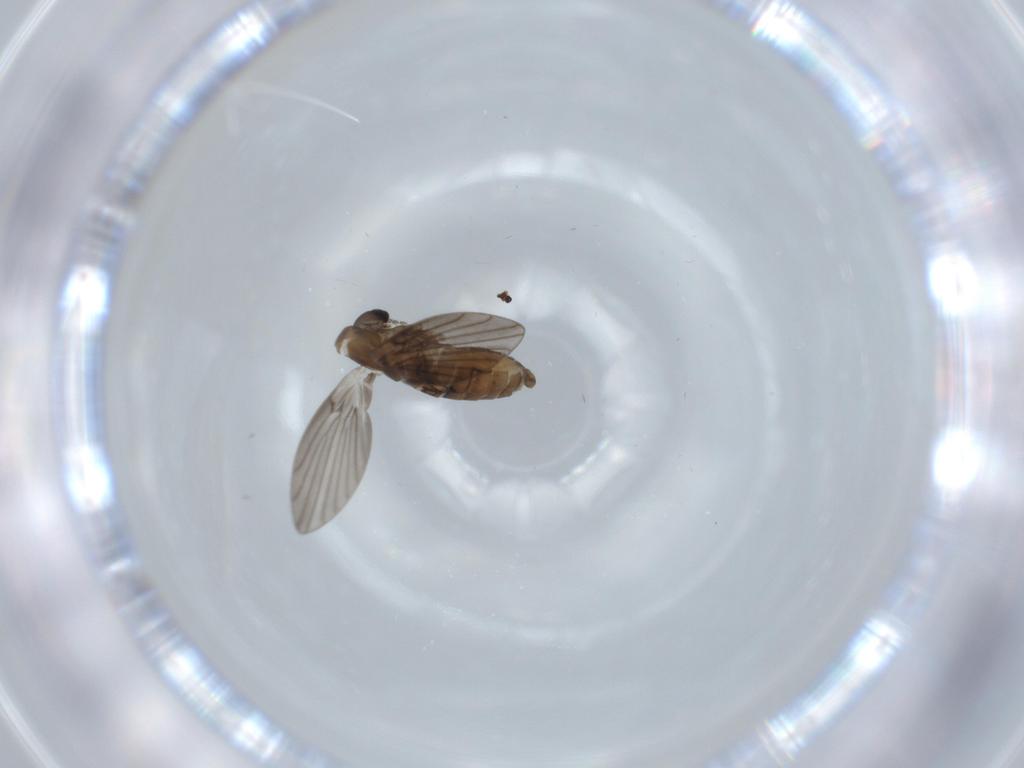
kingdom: Animalia
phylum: Arthropoda
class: Insecta
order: Diptera
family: Psychodidae
